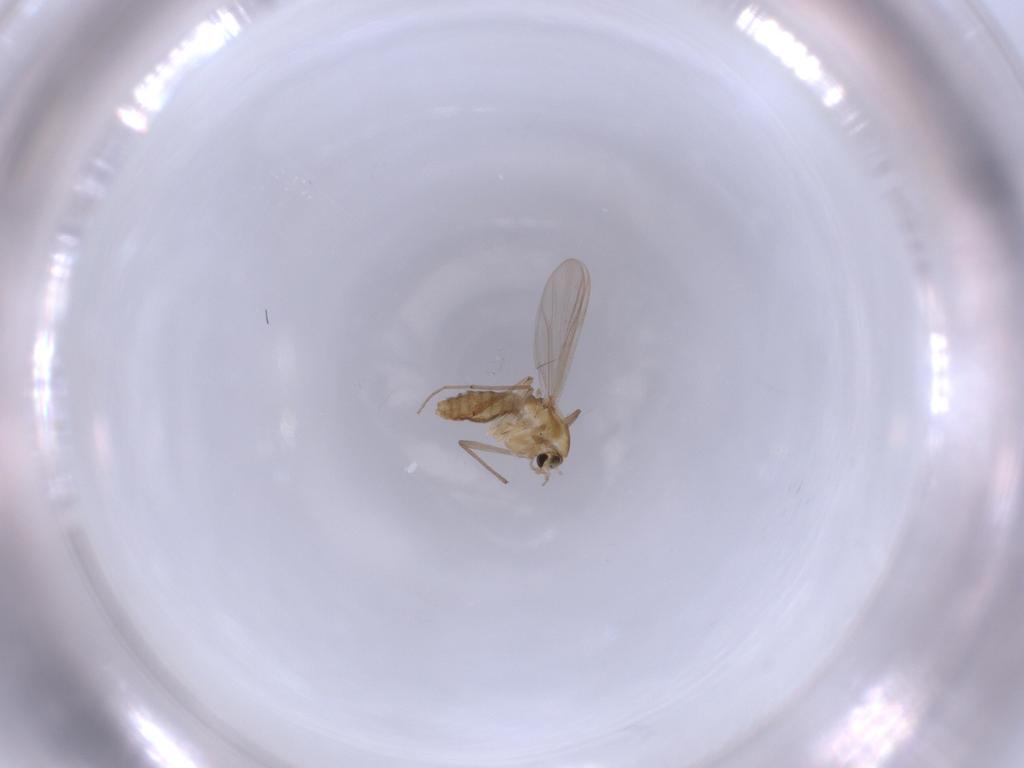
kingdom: Animalia
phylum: Arthropoda
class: Insecta
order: Diptera
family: Chironomidae
